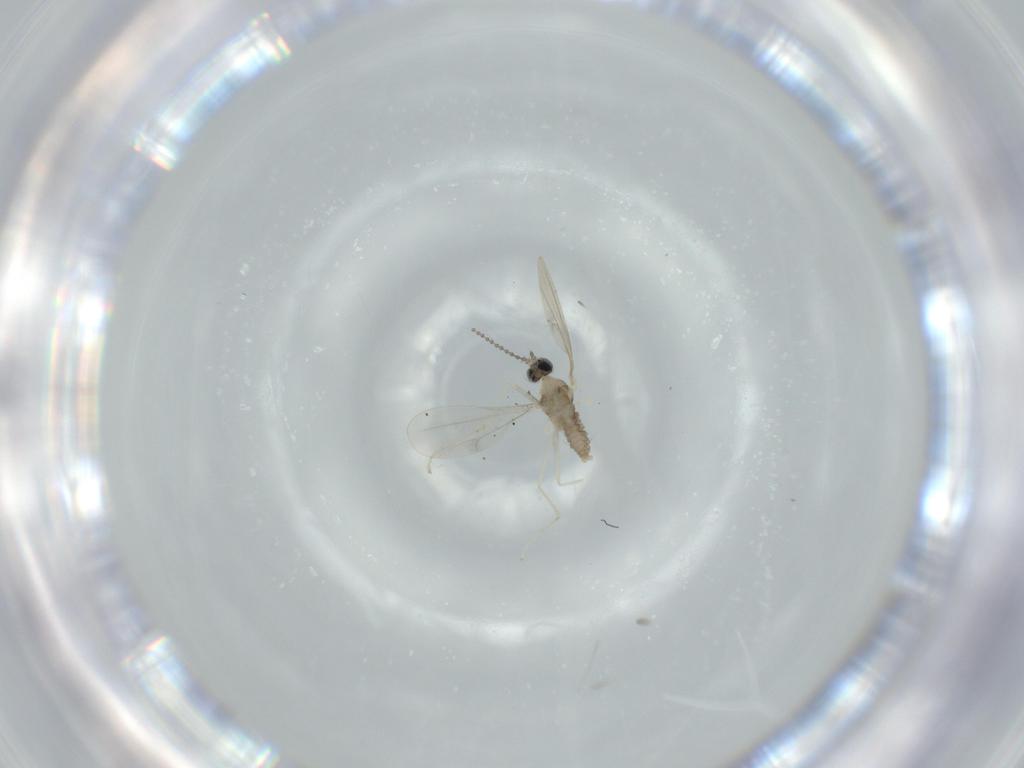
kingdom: Animalia
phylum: Arthropoda
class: Insecta
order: Diptera
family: Cecidomyiidae
